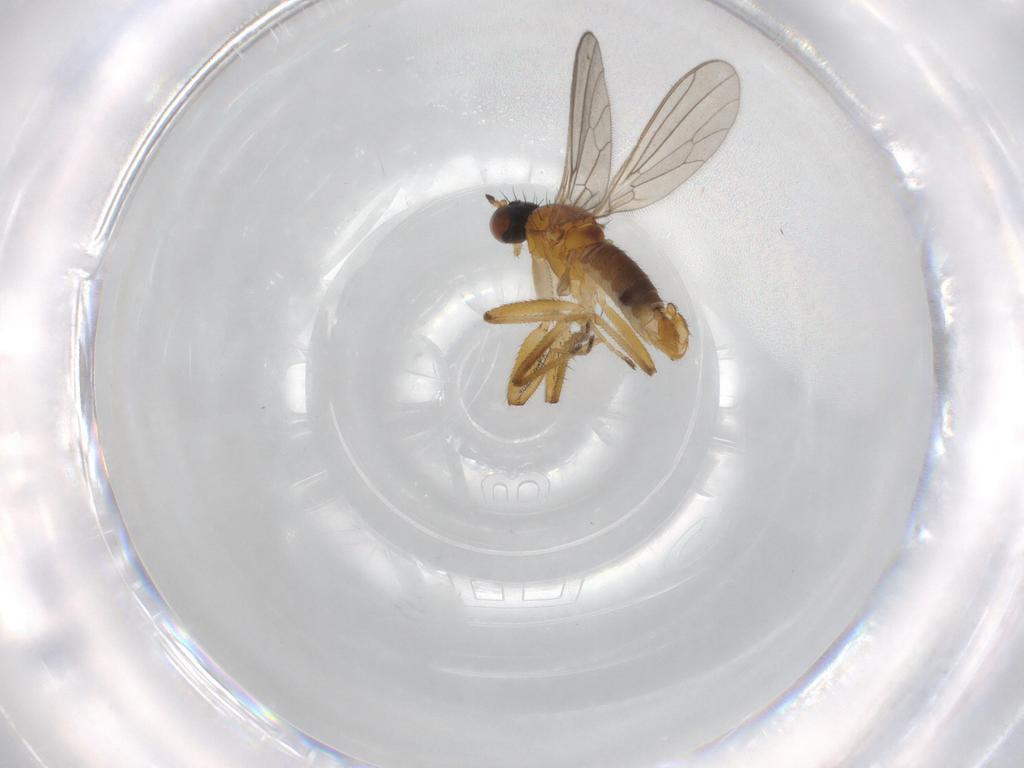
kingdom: Animalia
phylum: Arthropoda
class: Insecta
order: Diptera
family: Empididae
